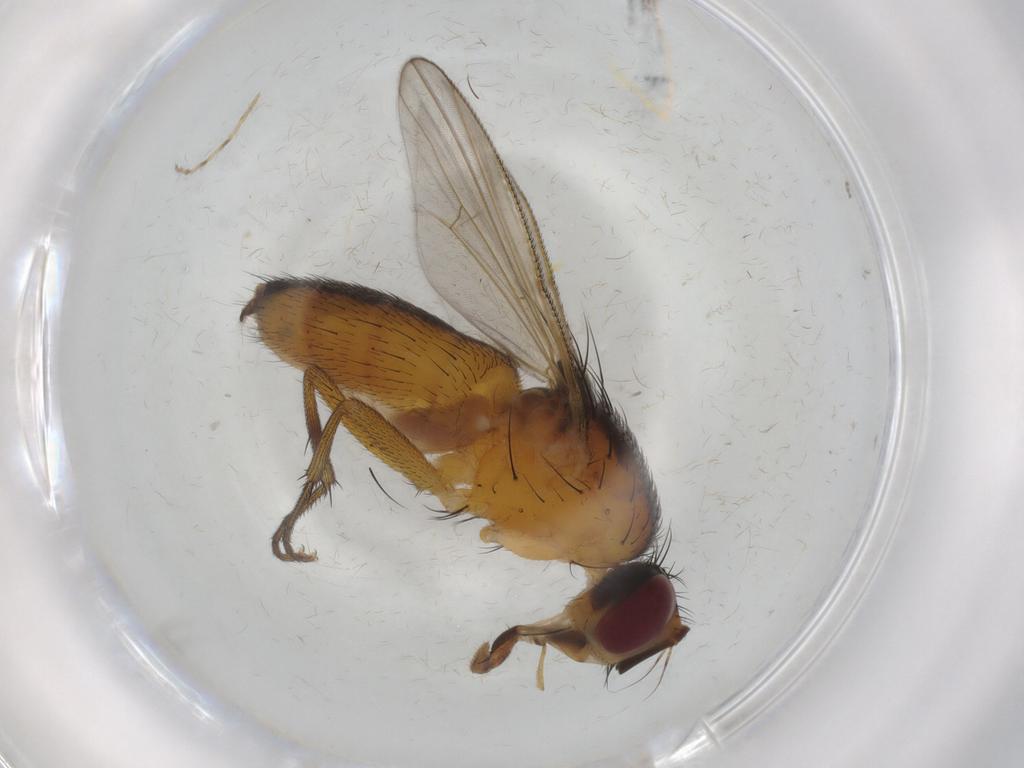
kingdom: Animalia
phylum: Arthropoda
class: Insecta
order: Diptera
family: Muscidae
